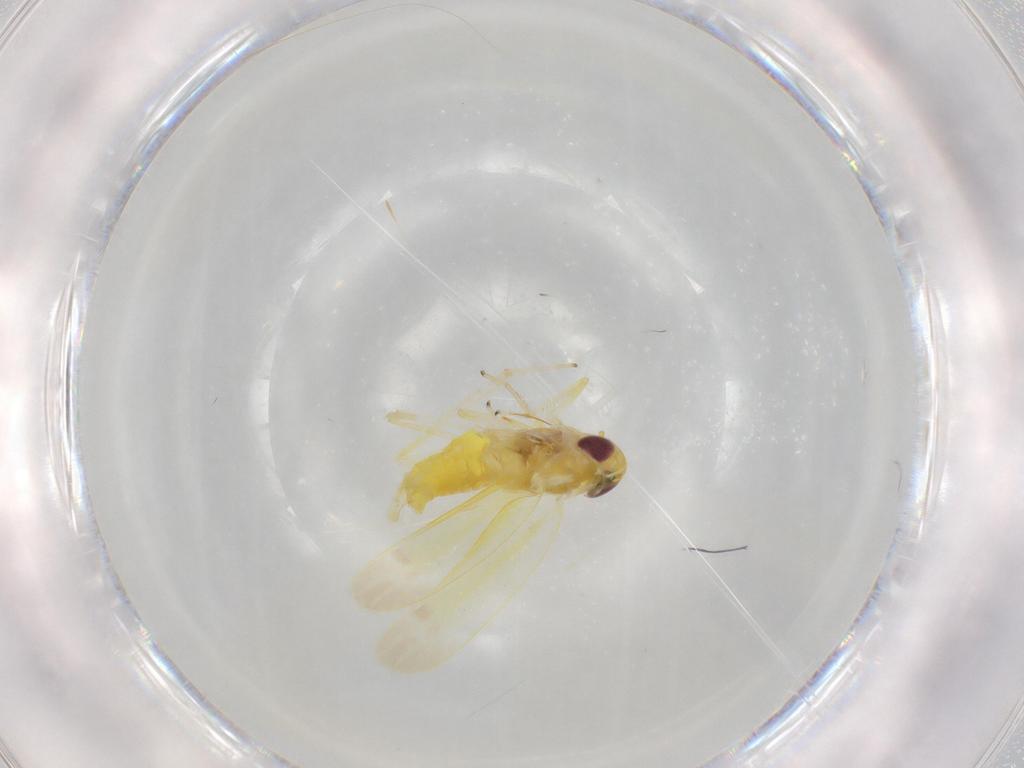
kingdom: Animalia
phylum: Arthropoda
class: Insecta
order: Hemiptera
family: Cicadellidae
